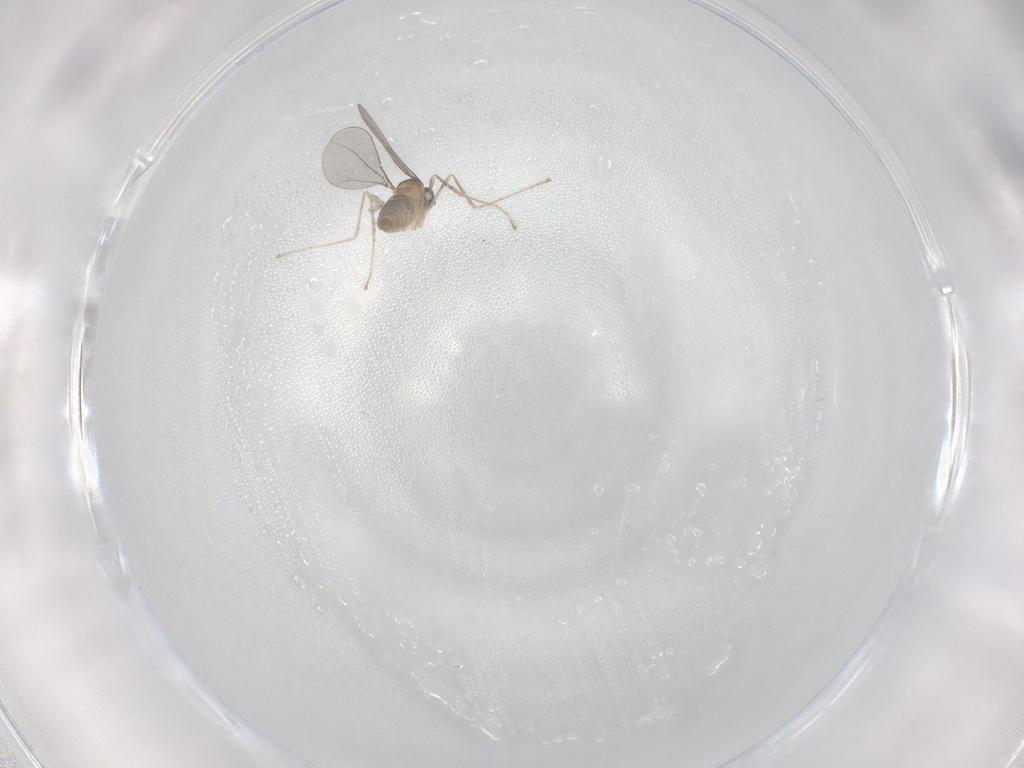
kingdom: Animalia
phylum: Arthropoda
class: Insecta
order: Diptera
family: Cecidomyiidae
